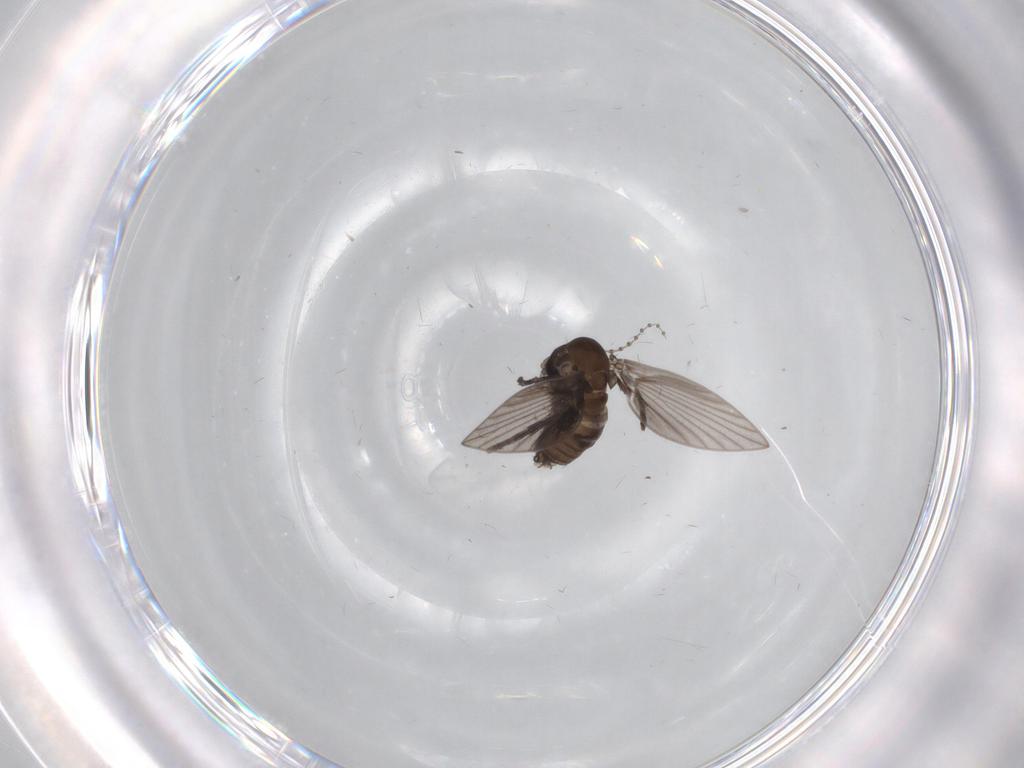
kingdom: Animalia
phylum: Arthropoda
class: Insecta
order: Diptera
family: Psychodidae
